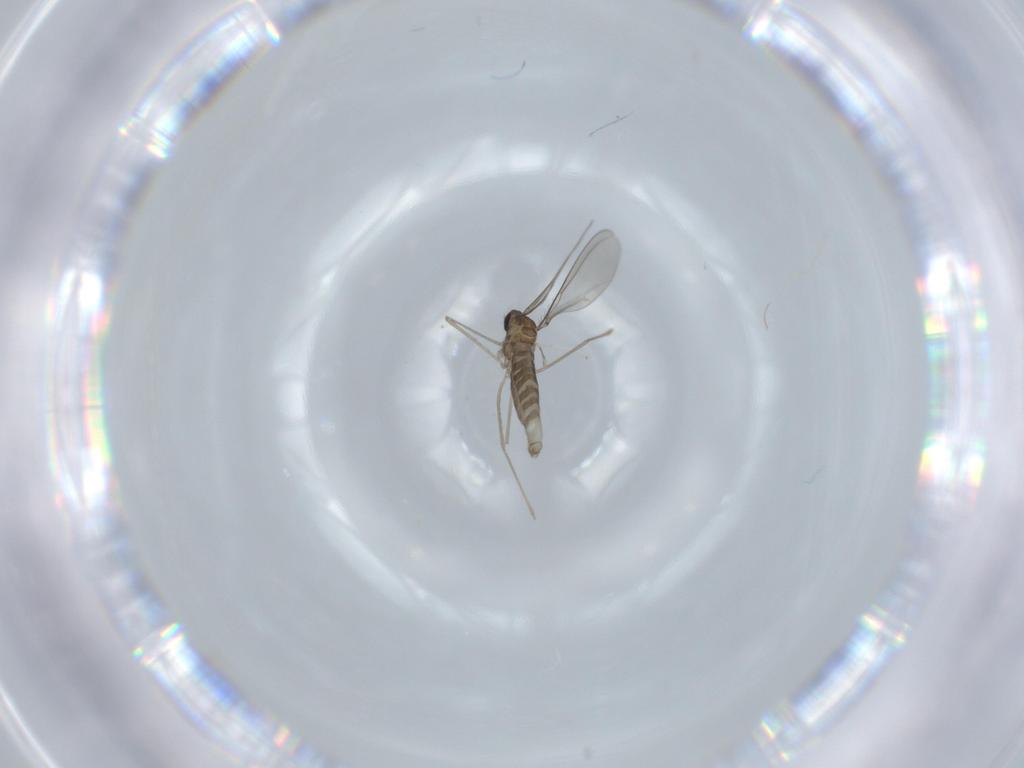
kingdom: Animalia
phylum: Arthropoda
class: Insecta
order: Diptera
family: Cecidomyiidae
